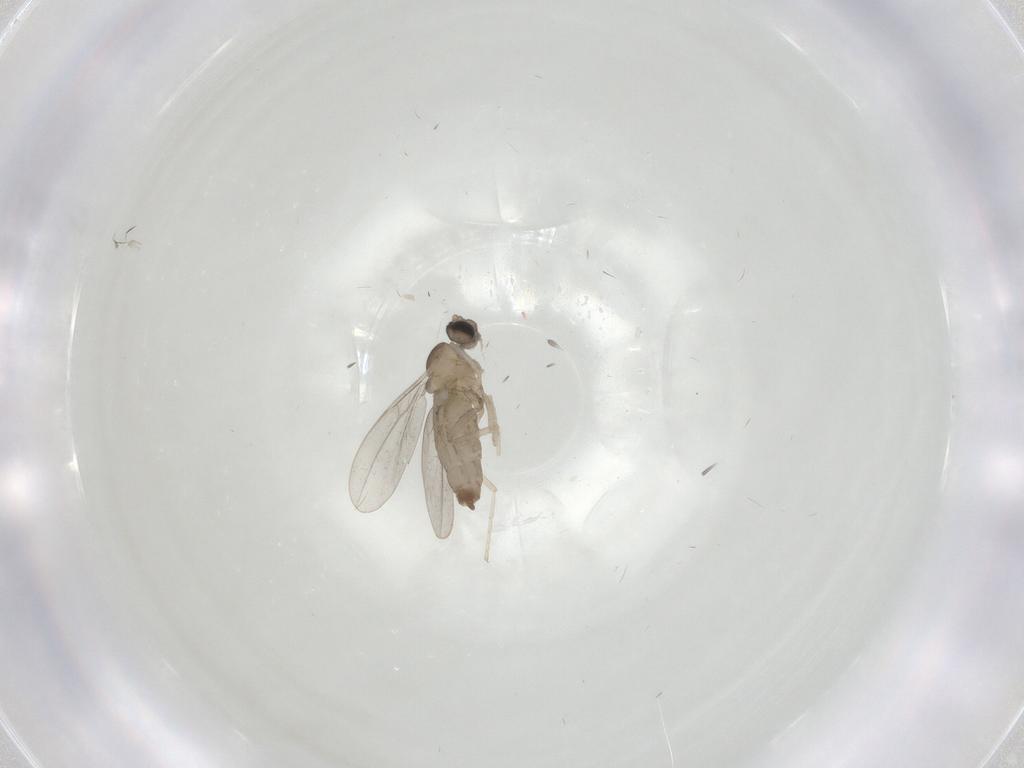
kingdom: Animalia
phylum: Arthropoda
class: Insecta
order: Diptera
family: Cecidomyiidae
